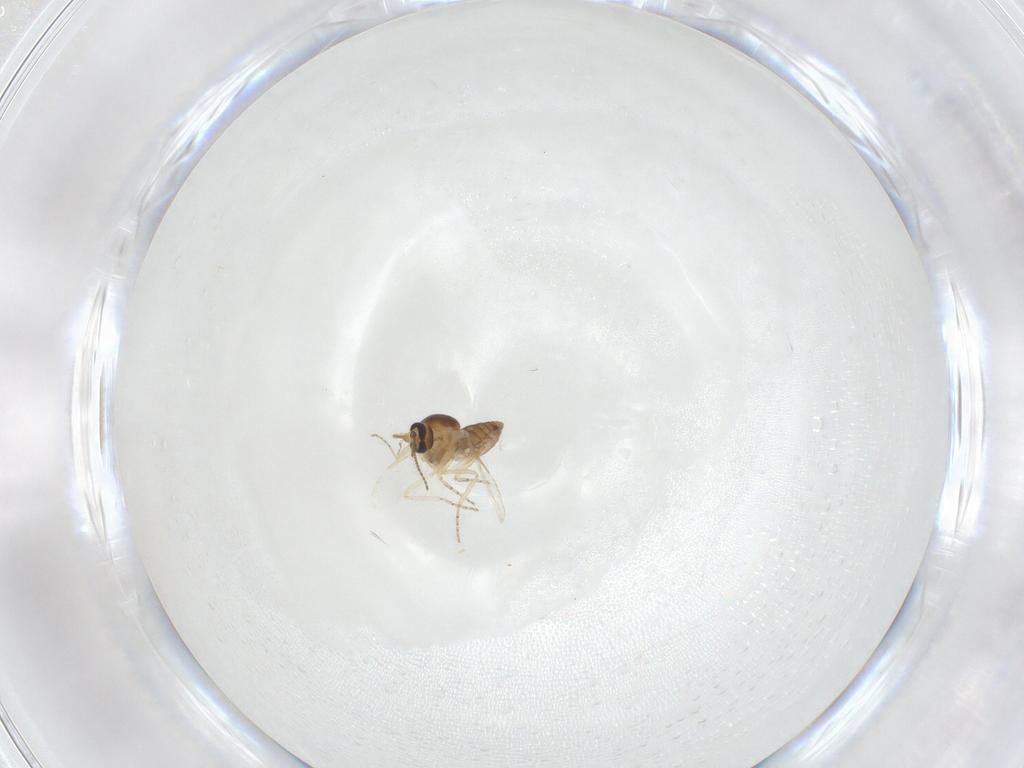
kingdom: Animalia
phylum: Arthropoda
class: Insecta
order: Diptera
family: Ceratopogonidae
